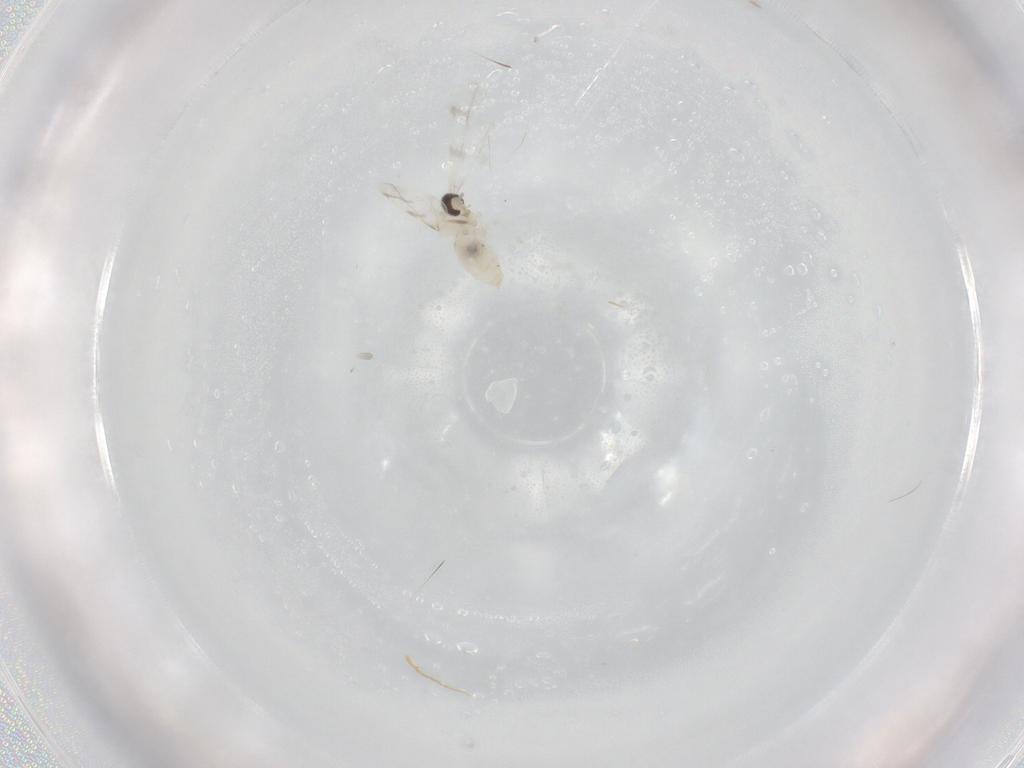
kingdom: Animalia
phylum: Arthropoda
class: Insecta
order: Diptera
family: Cecidomyiidae
